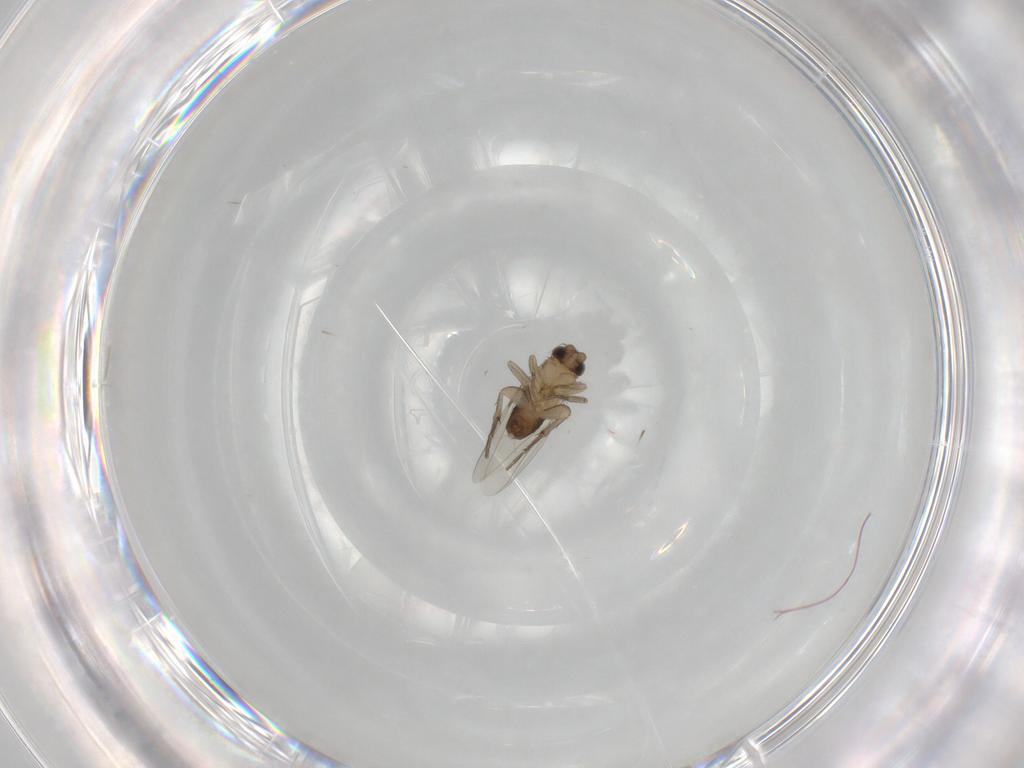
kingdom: Animalia
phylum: Arthropoda
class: Insecta
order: Diptera
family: Phoridae
